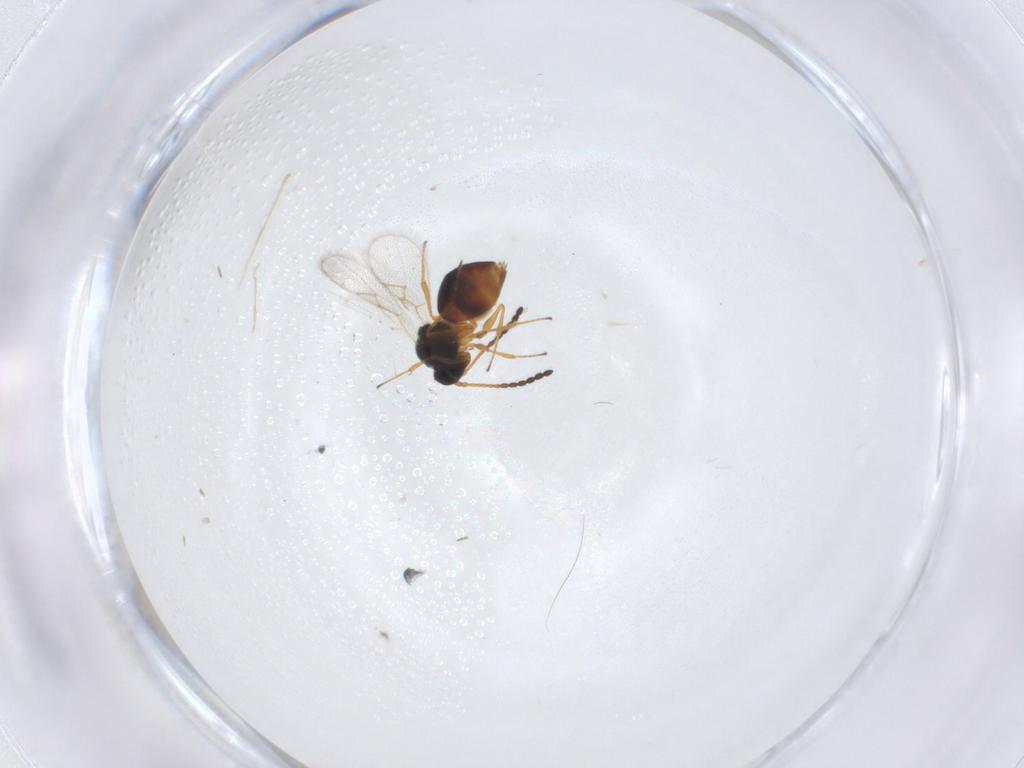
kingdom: Animalia
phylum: Arthropoda
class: Insecta
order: Hymenoptera
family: Figitidae
